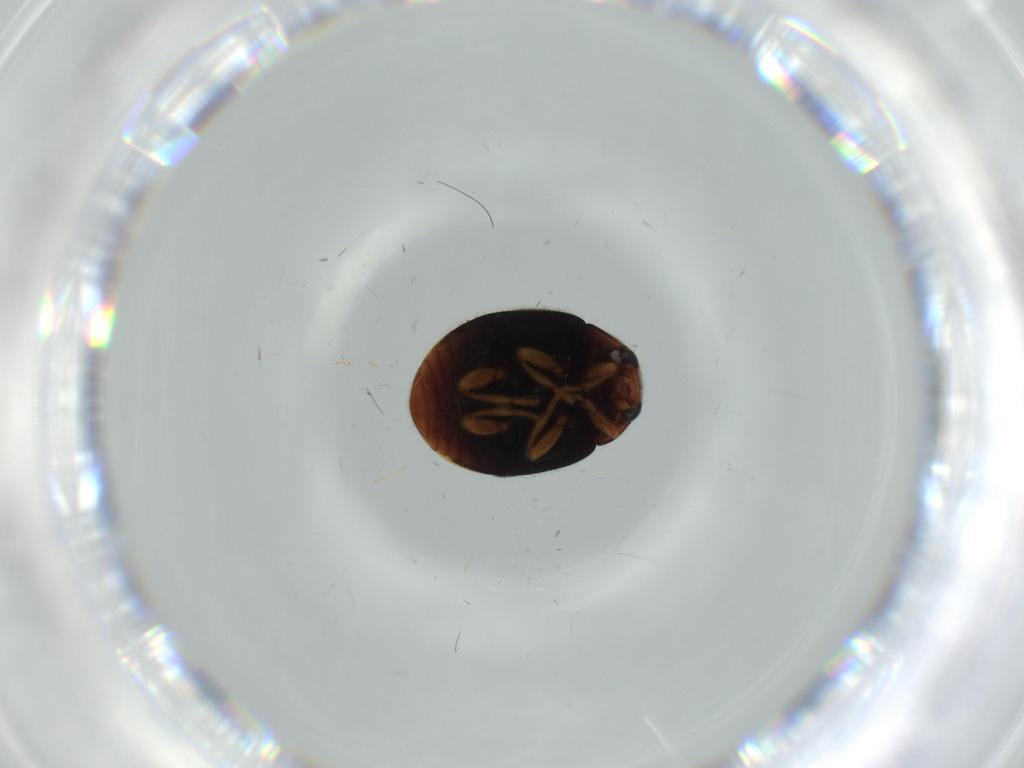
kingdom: Animalia
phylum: Arthropoda
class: Insecta
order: Coleoptera
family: Coccinellidae
